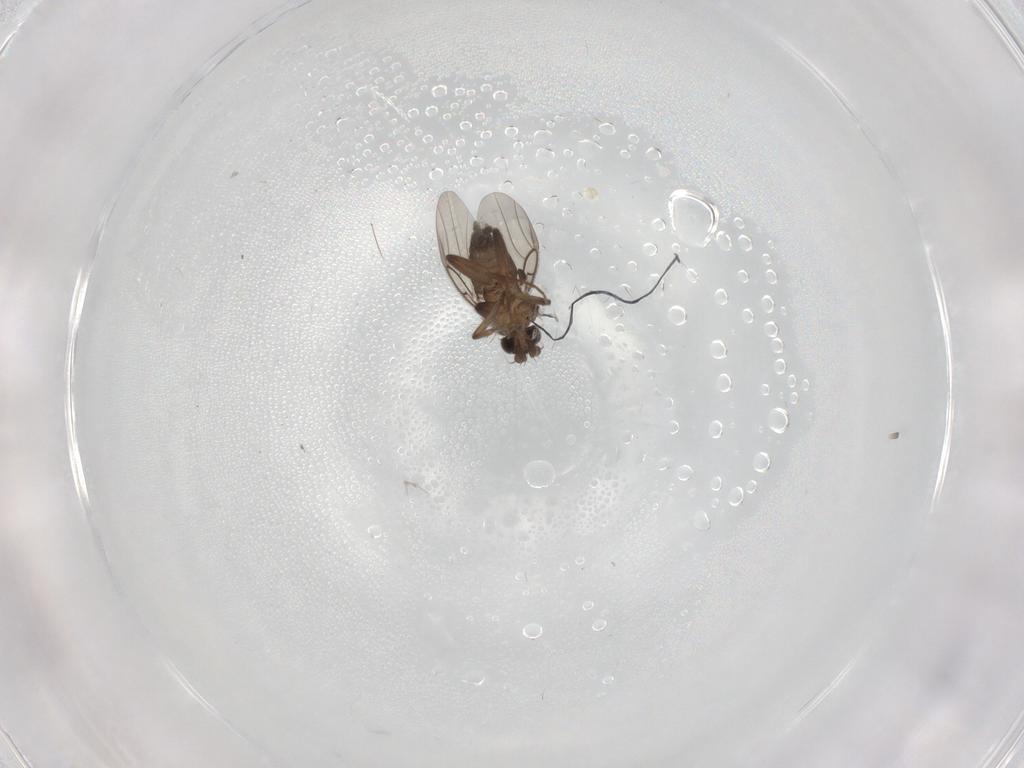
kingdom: Animalia
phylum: Arthropoda
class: Insecta
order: Diptera
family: Phoridae
